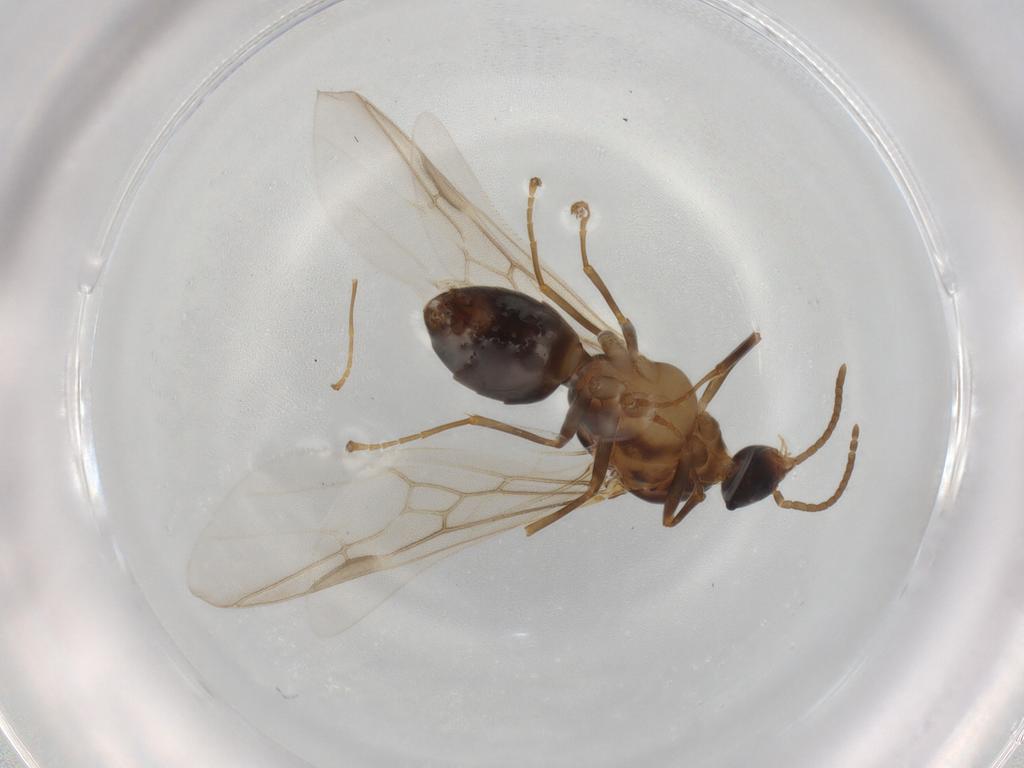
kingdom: Animalia
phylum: Arthropoda
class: Insecta
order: Hymenoptera
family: Formicidae
